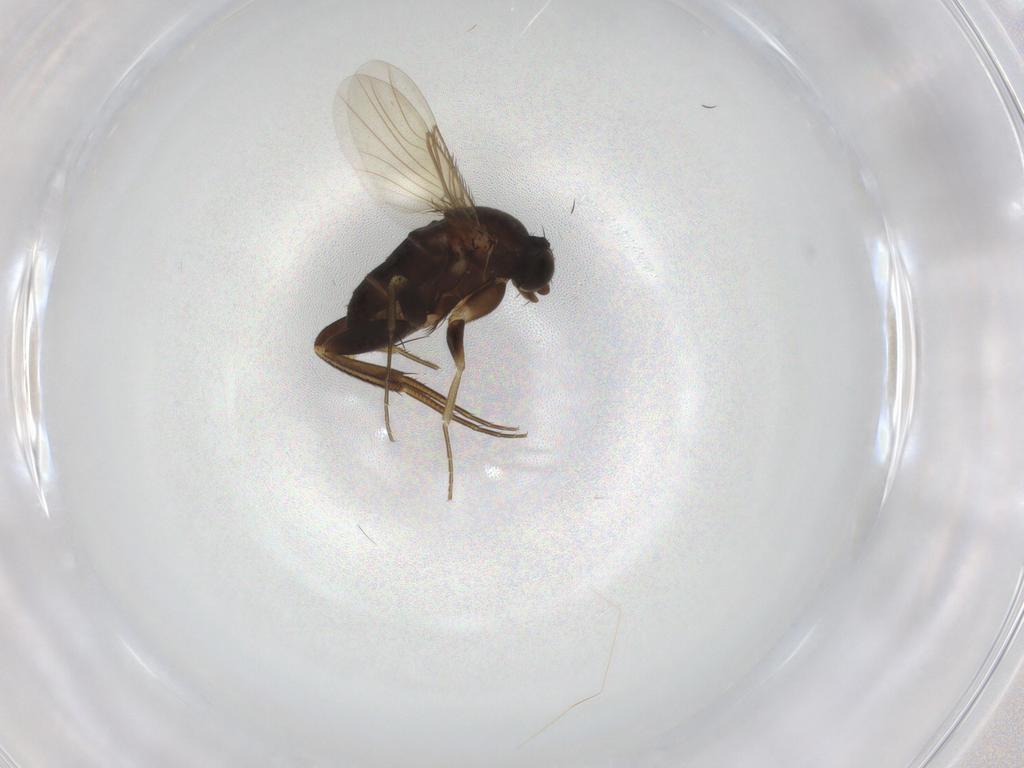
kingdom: Animalia
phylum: Arthropoda
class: Insecta
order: Diptera
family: Phoridae
